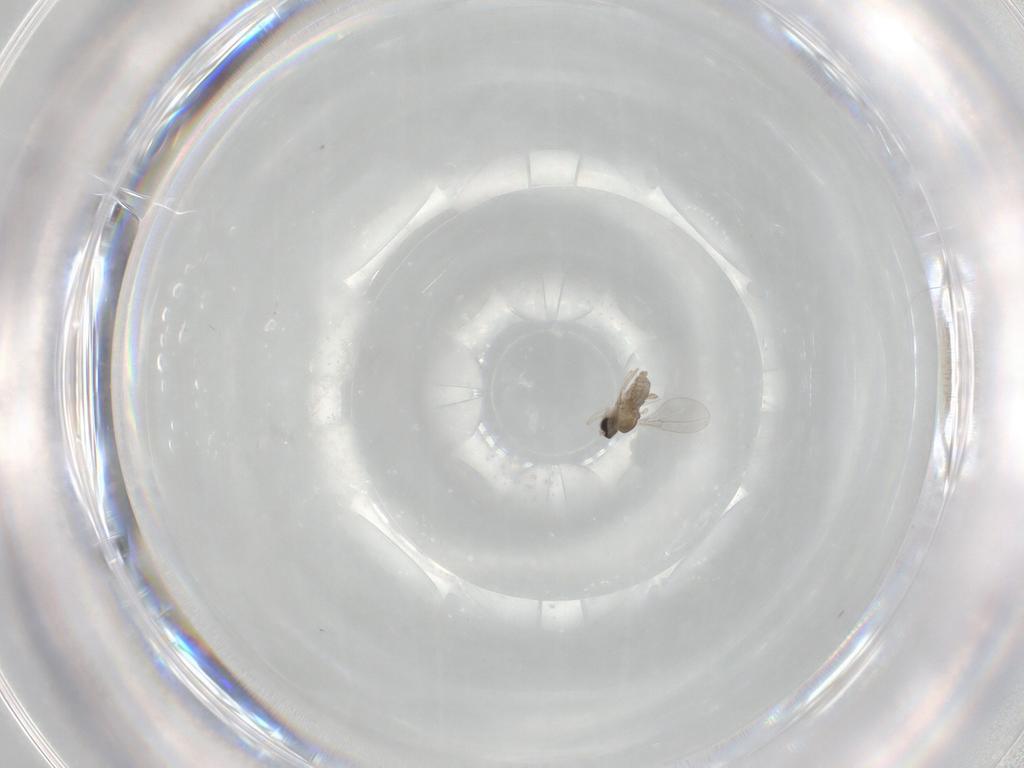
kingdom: Animalia
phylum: Arthropoda
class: Insecta
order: Diptera
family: Cecidomyiidae
